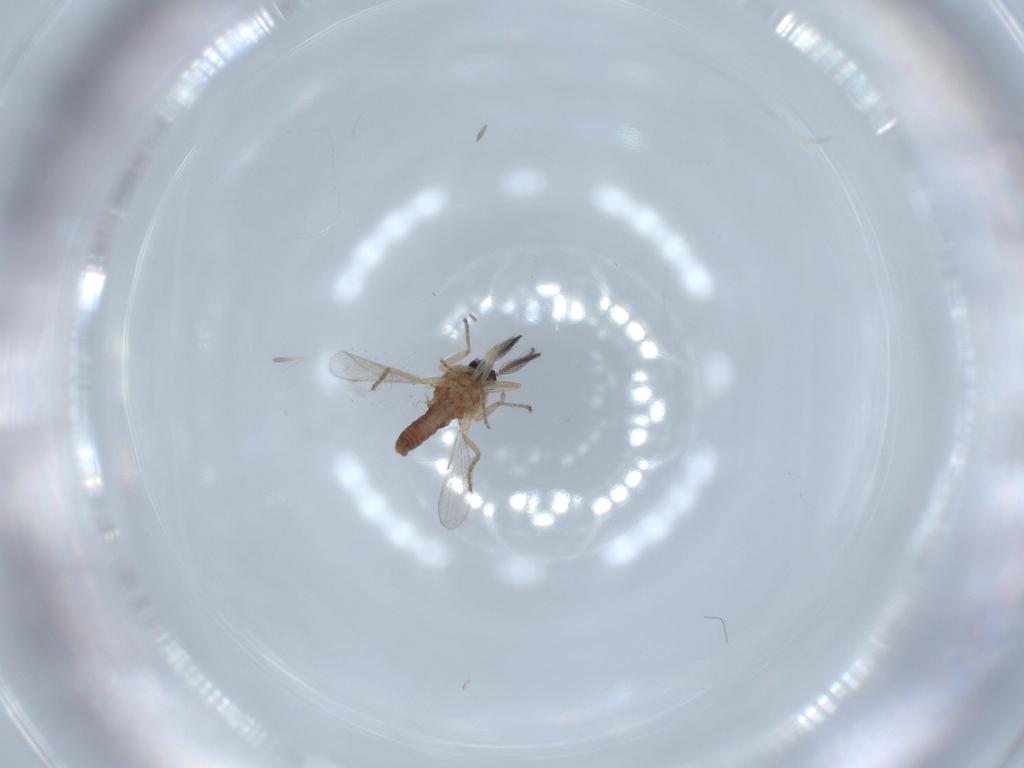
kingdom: Animalia
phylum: Arthropoda
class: Insecta
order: Diptera
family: Ceratopogonidae
